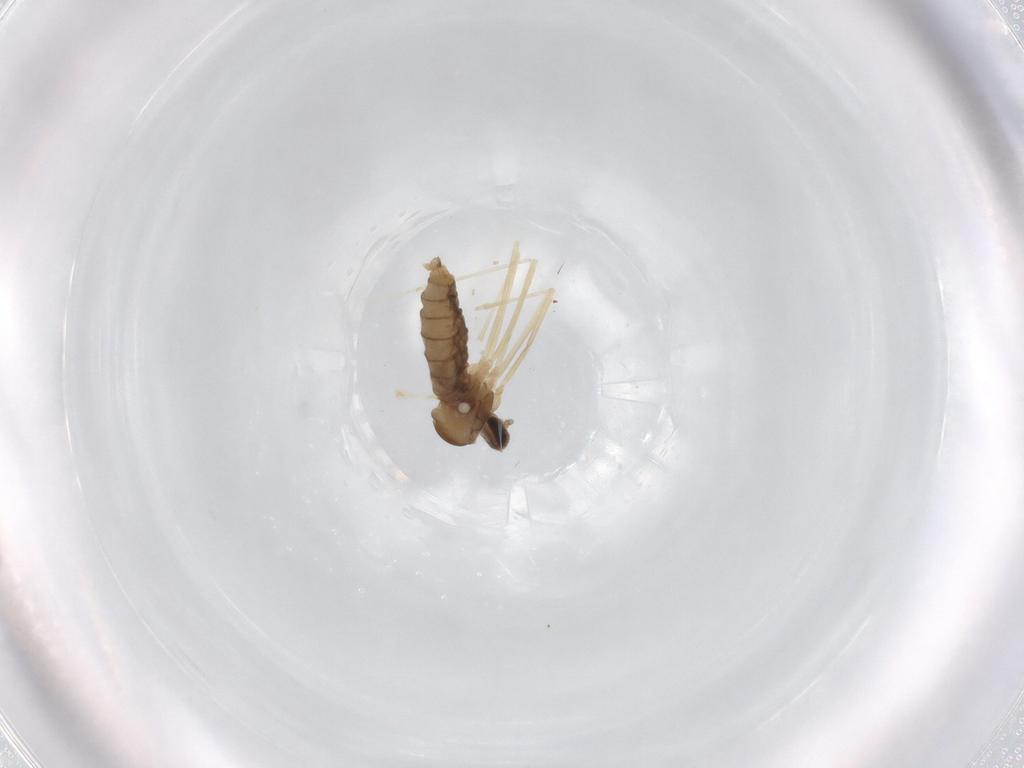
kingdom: Animalia
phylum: Arthropoda
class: Insecta
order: Diptera
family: Cecidomyiidae
